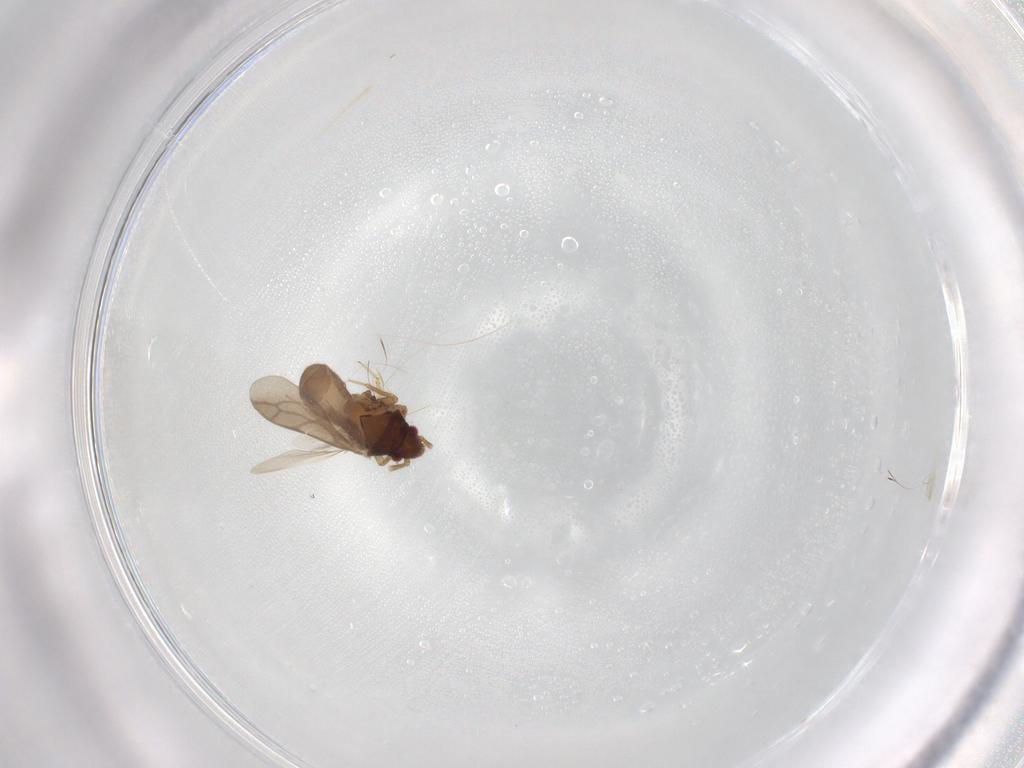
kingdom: Animalia
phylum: Arthropoda
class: Insecta
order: Hemiptera
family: Ceratocombidae
